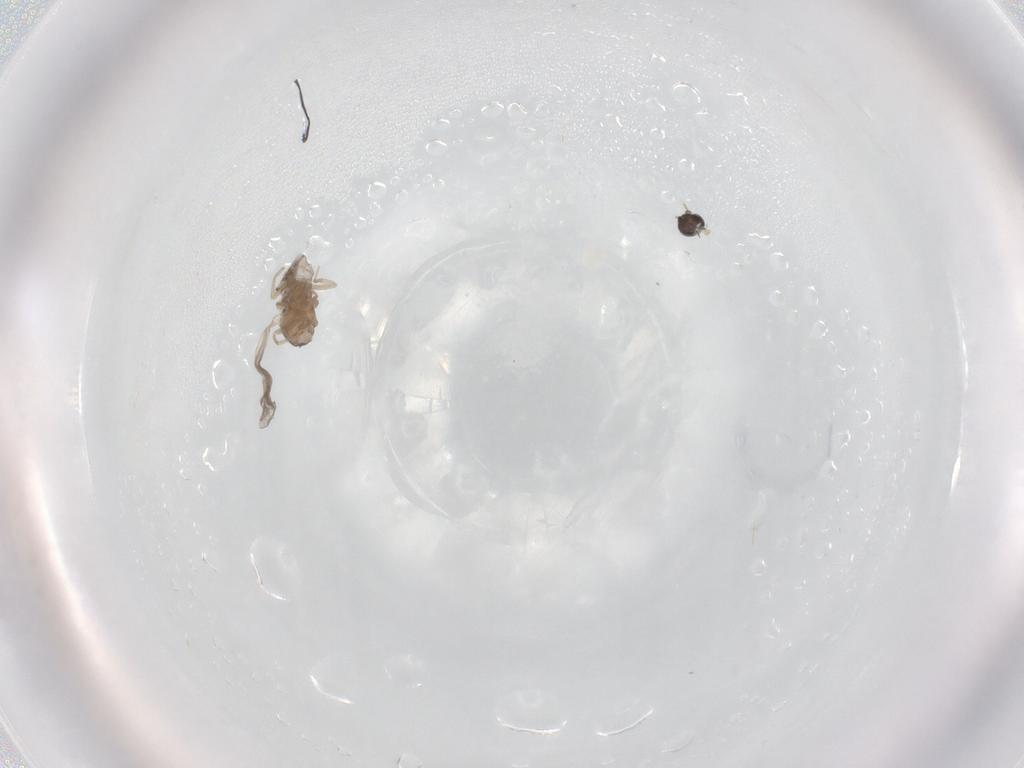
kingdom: Animalia
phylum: Arthropoda
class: Insecta
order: Diptera
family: Cecidomyiidae
